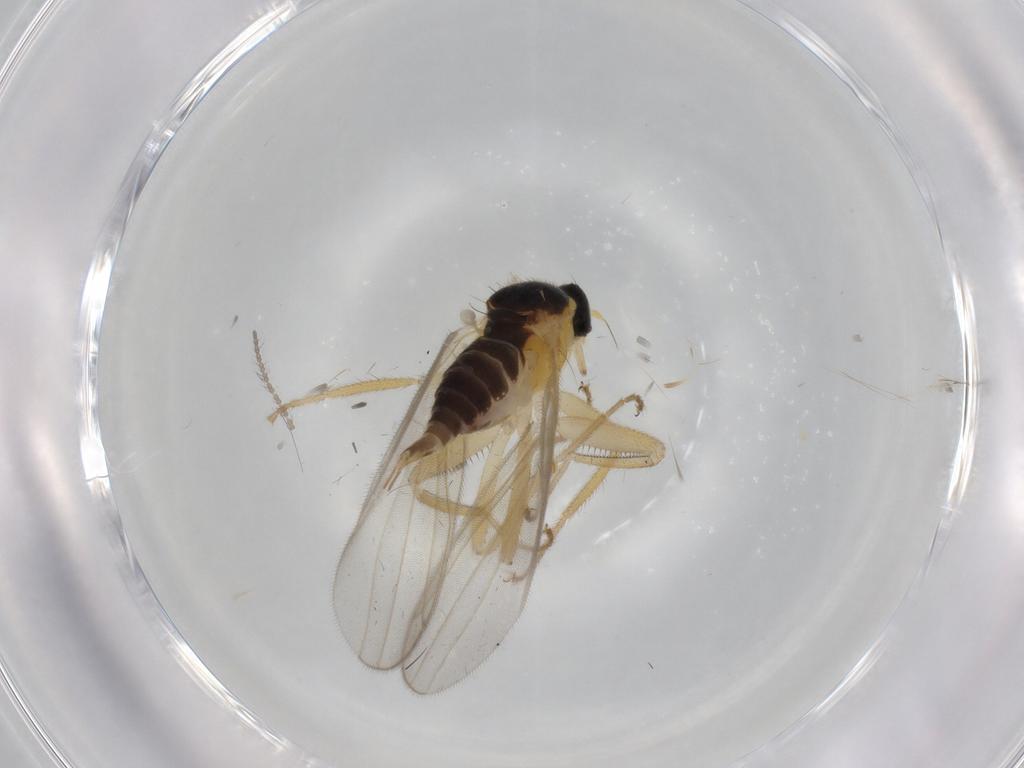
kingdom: Animalia
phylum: Arthropoda
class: Insecta
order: Diptera
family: Hybotidae
